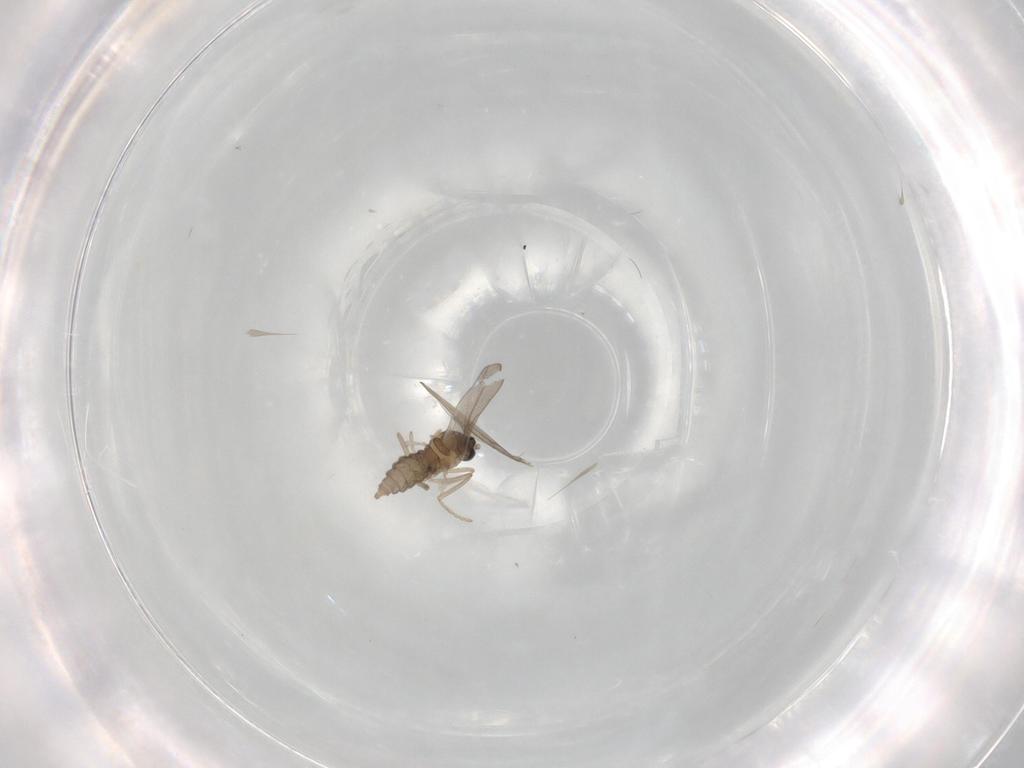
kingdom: Animalia
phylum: Arthropoda
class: Insecta
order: Diptera
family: Cecidomyiidae
